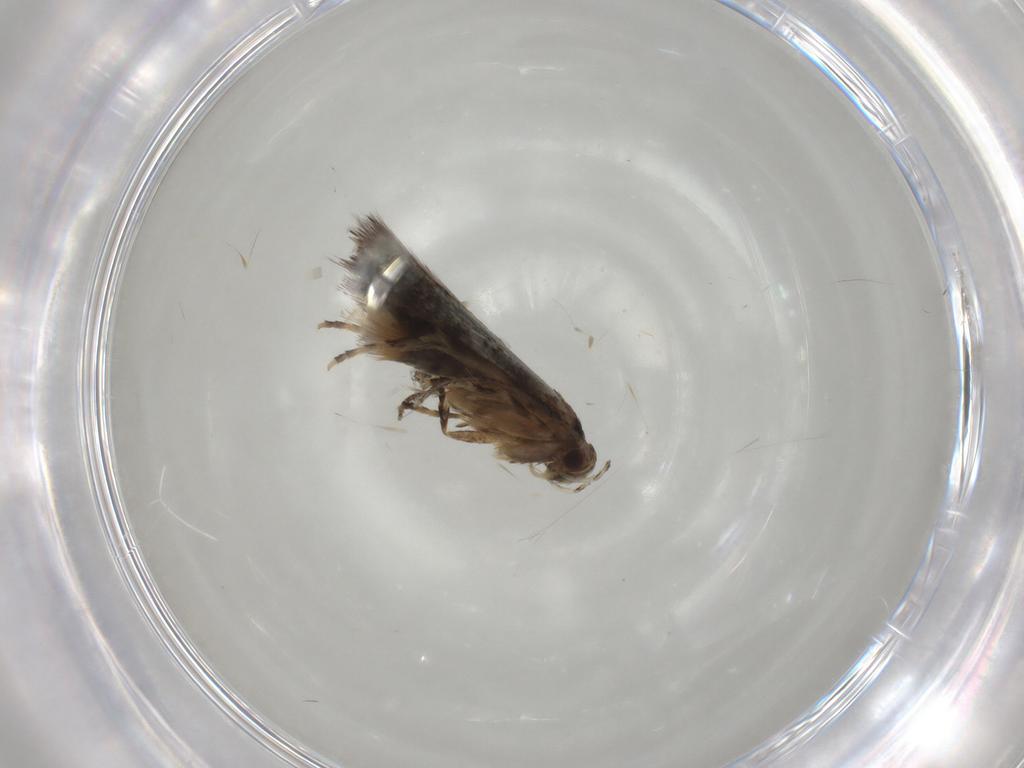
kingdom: Animalia
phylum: Arthropoda
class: Insecta
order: Lepidoptera
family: Elachistidae
